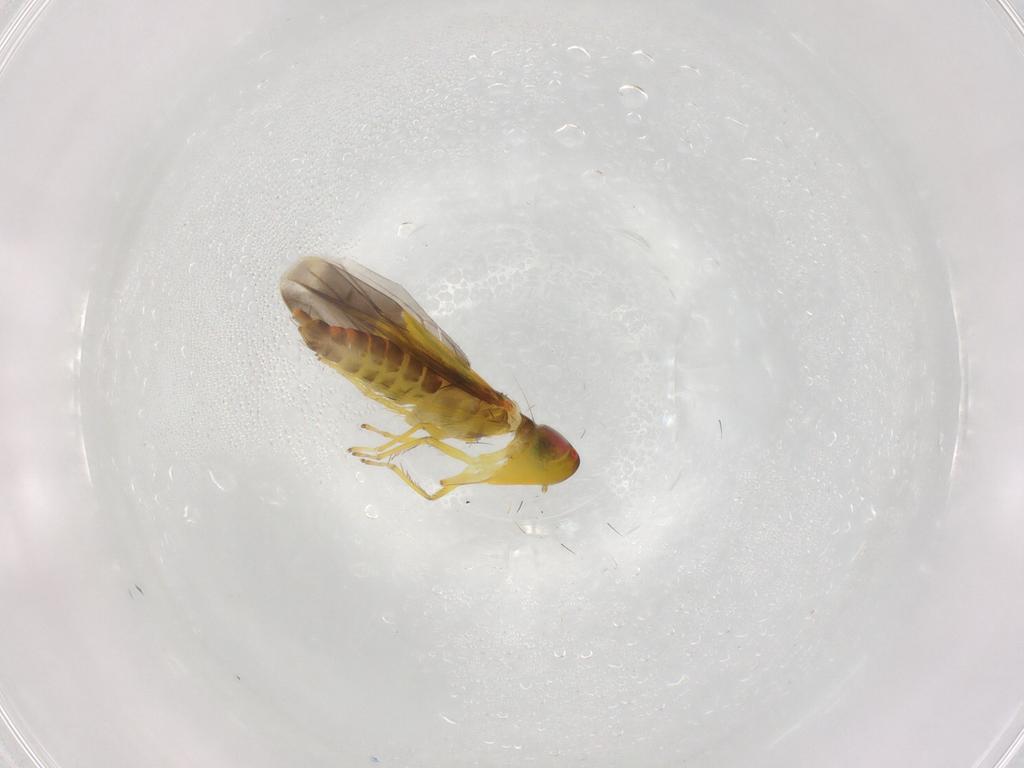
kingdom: Animalia
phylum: Arthropoda
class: Insecta
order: Hemiptera
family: Cicadellidae
